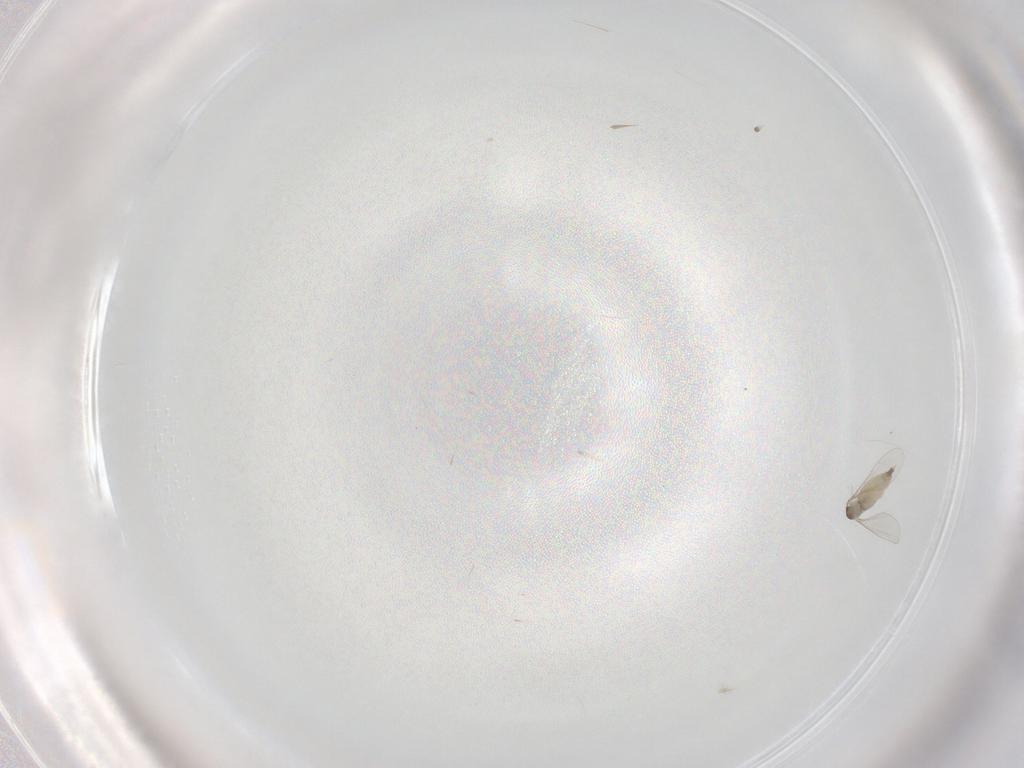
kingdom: Animalia
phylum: Arthropoda
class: Insecta
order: Diptera
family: Cecidomyiidae
